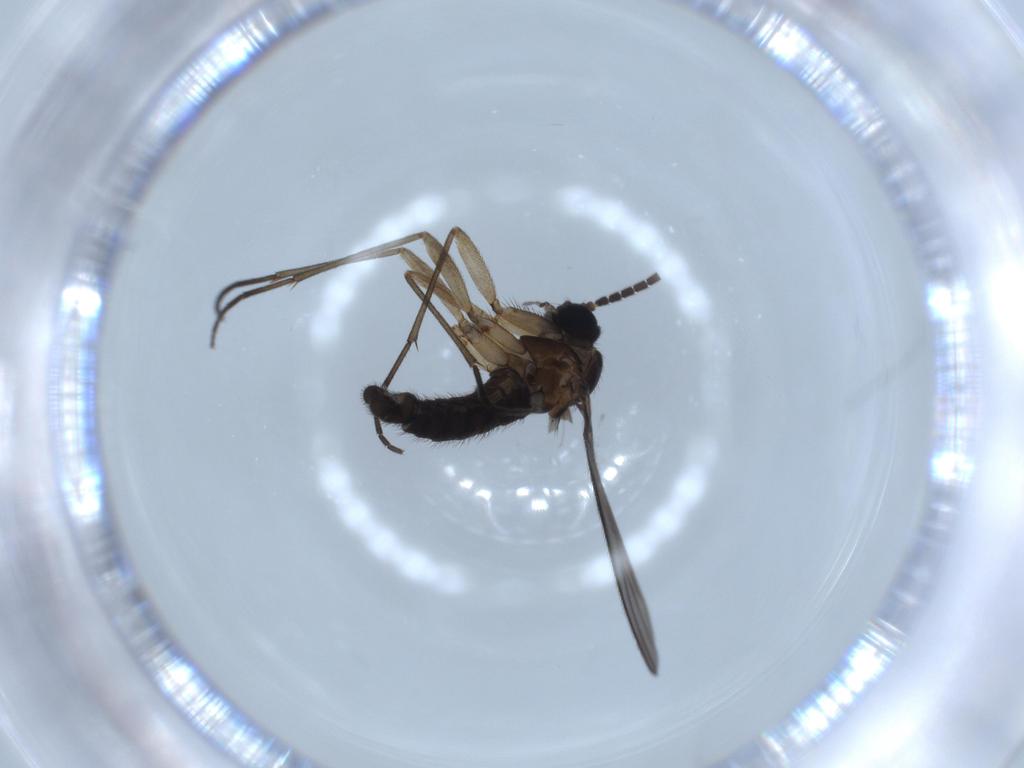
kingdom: Animalia
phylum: Arthropoda
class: Insecta
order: Diptera
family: Sciaridae
